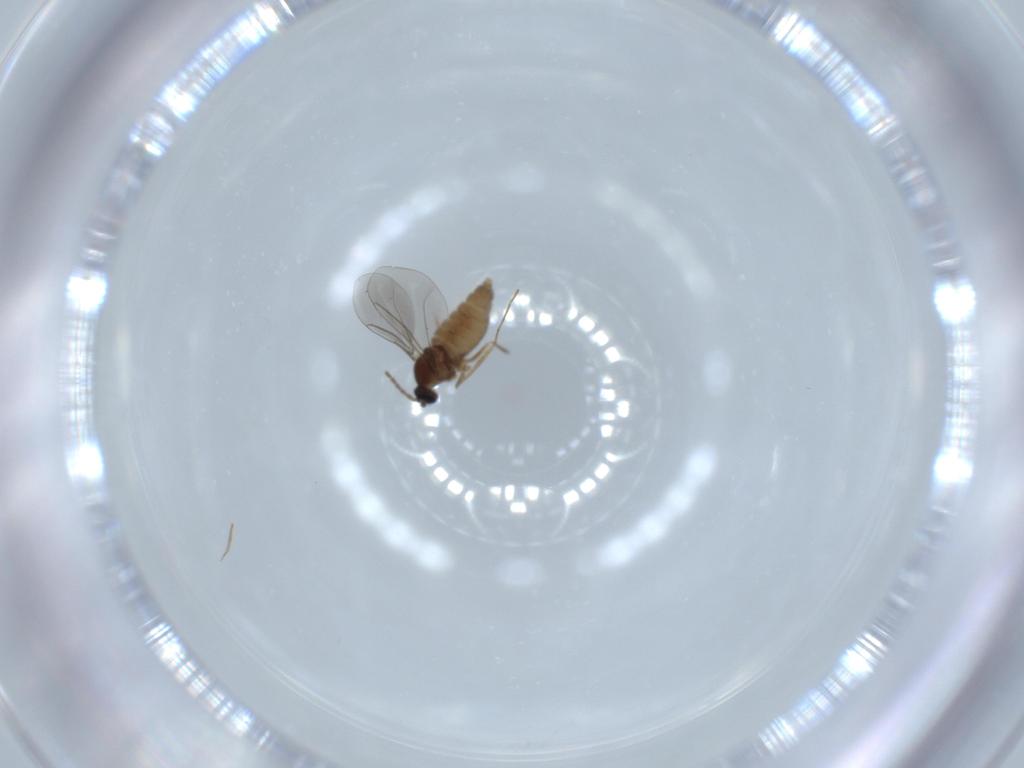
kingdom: Animalia
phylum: Arthropoda
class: Insecta
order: Diptera
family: Cecidomyiidae
